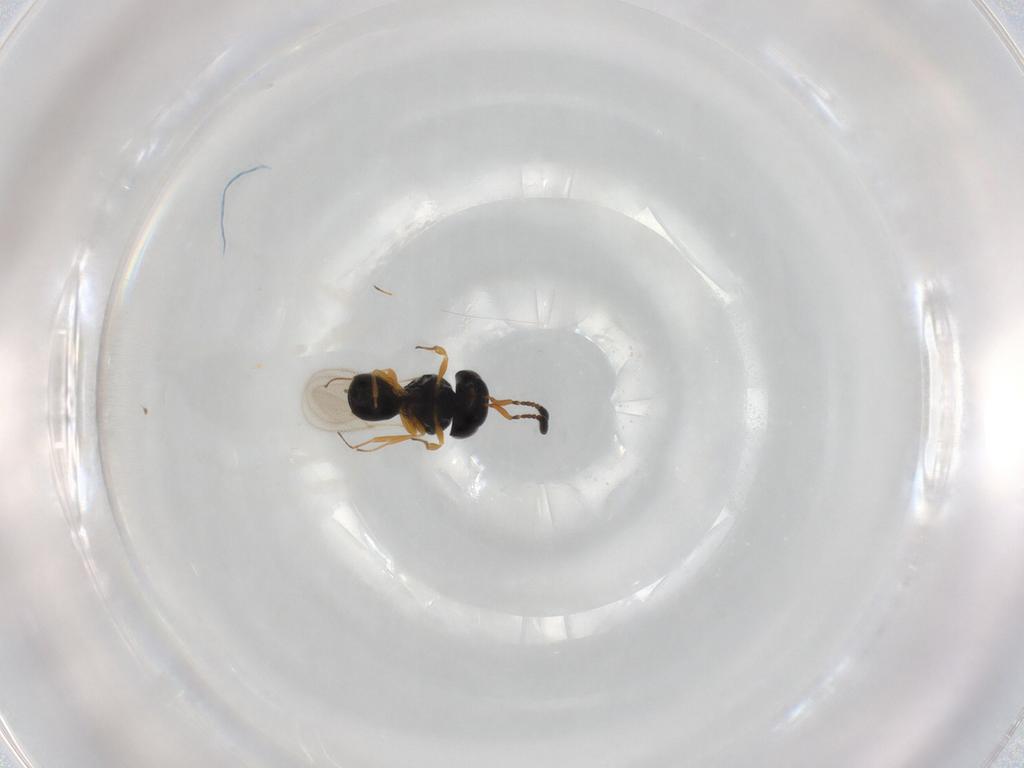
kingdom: Animalia
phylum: Arthropoda
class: Insecta
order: Hymenoptera
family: Scelionidae
